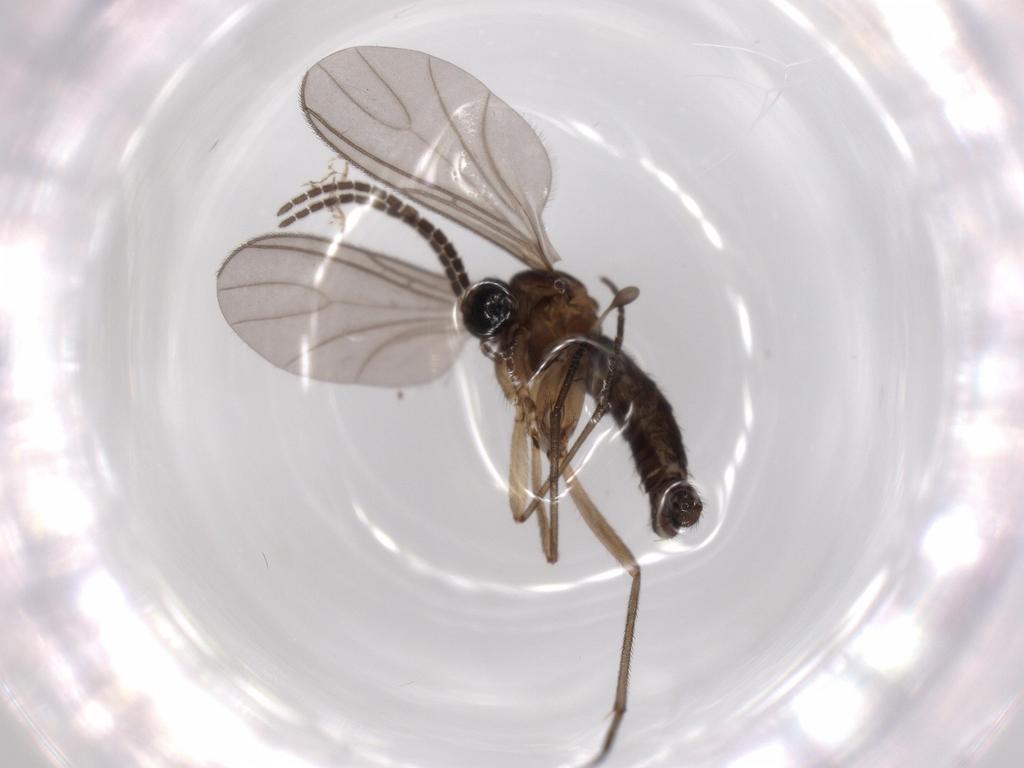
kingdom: Animalia
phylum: Arthropoda
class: Insecta
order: Diptera
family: Sciaridae
